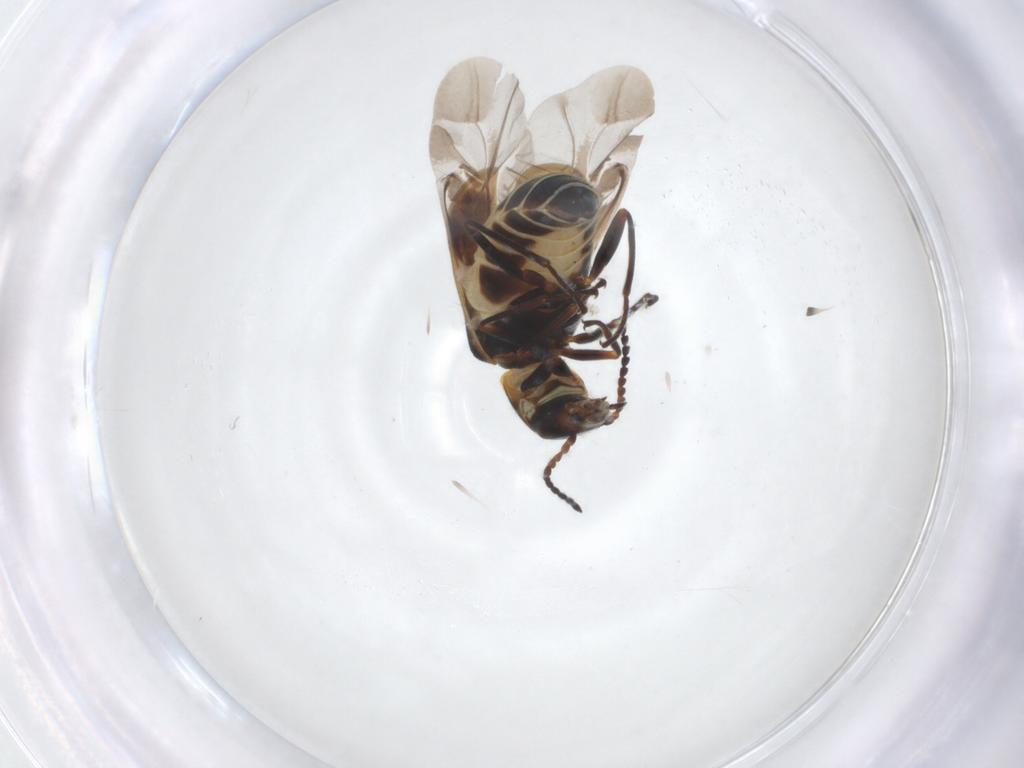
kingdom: Animalia
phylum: Arthropoda
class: Insecta
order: Coleoptera
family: Melyridae
